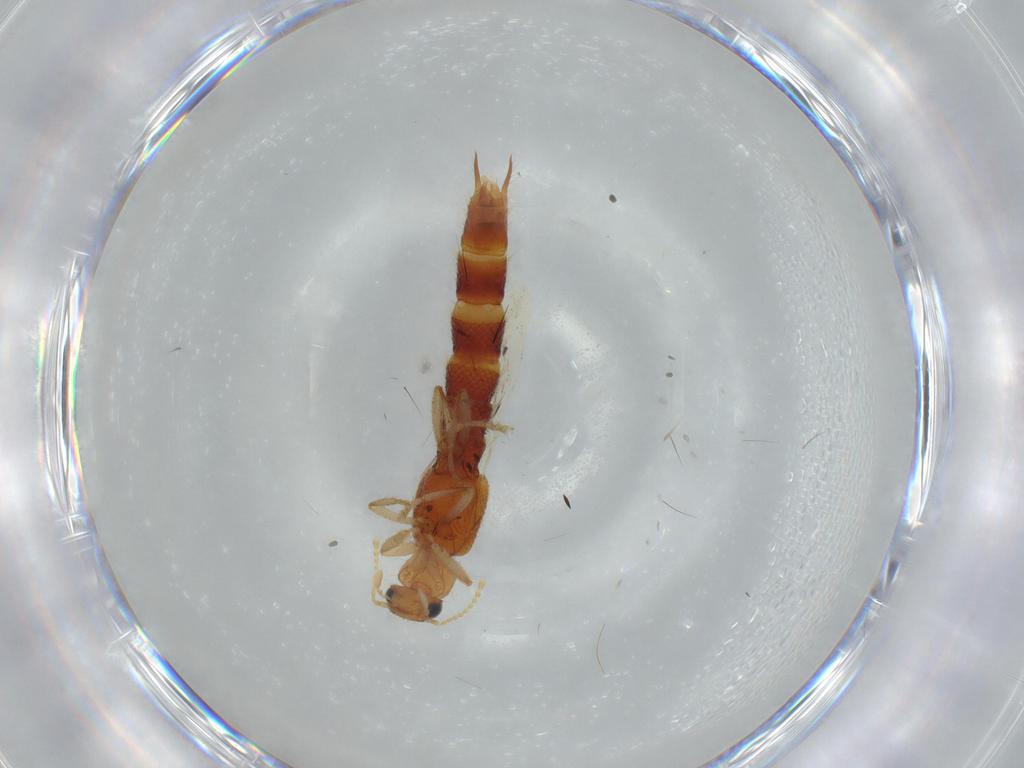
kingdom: Animalia
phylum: Arthropoda
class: Insecta
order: Coleoptera
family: Staphylinidae
